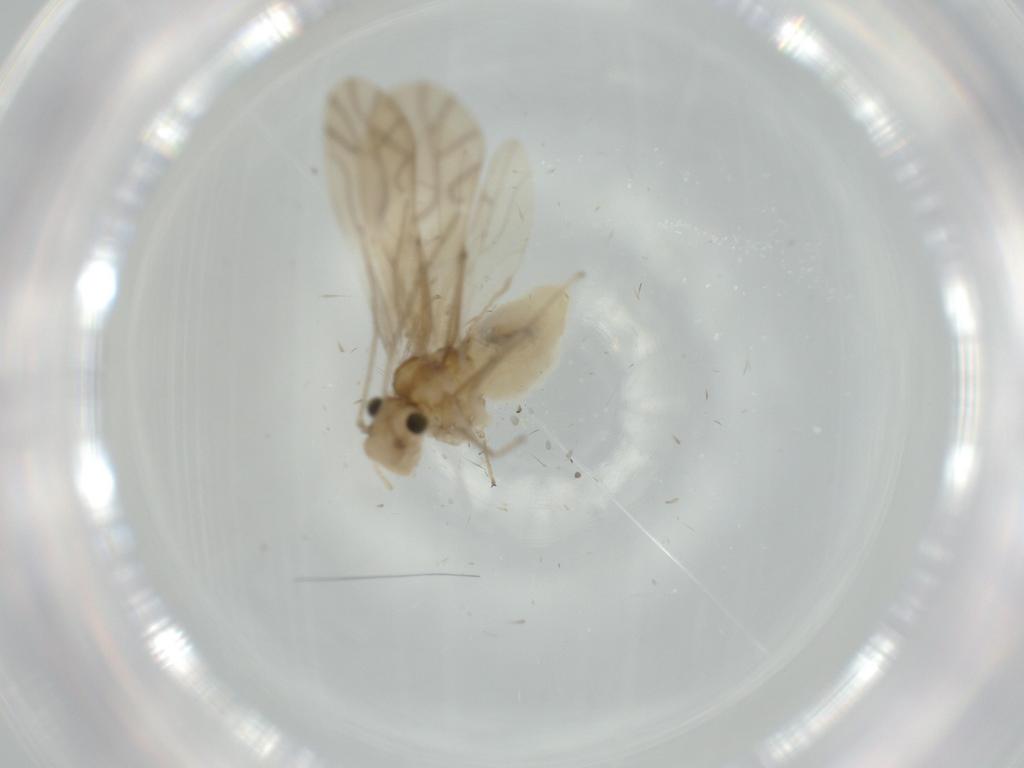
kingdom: Animalia
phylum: Arthropoda
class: Insecta
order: Psocodea
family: Caeciliusidae
